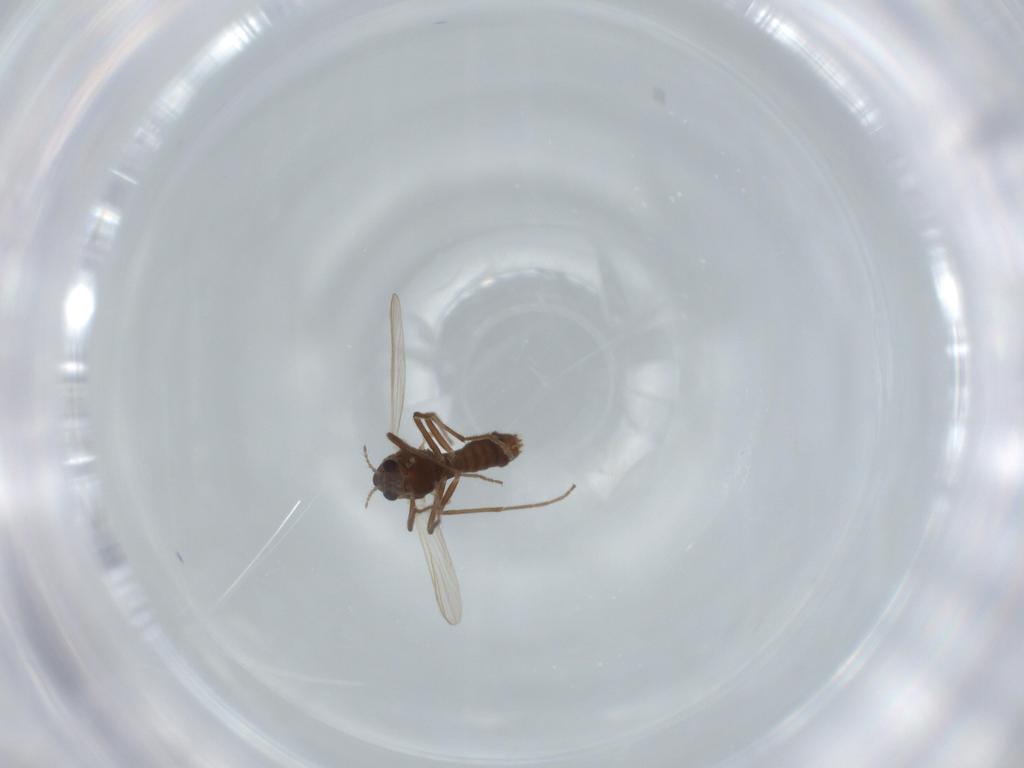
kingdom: Animalia
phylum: Arthropoda
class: Insecta
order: Diptera
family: Chironomidae
